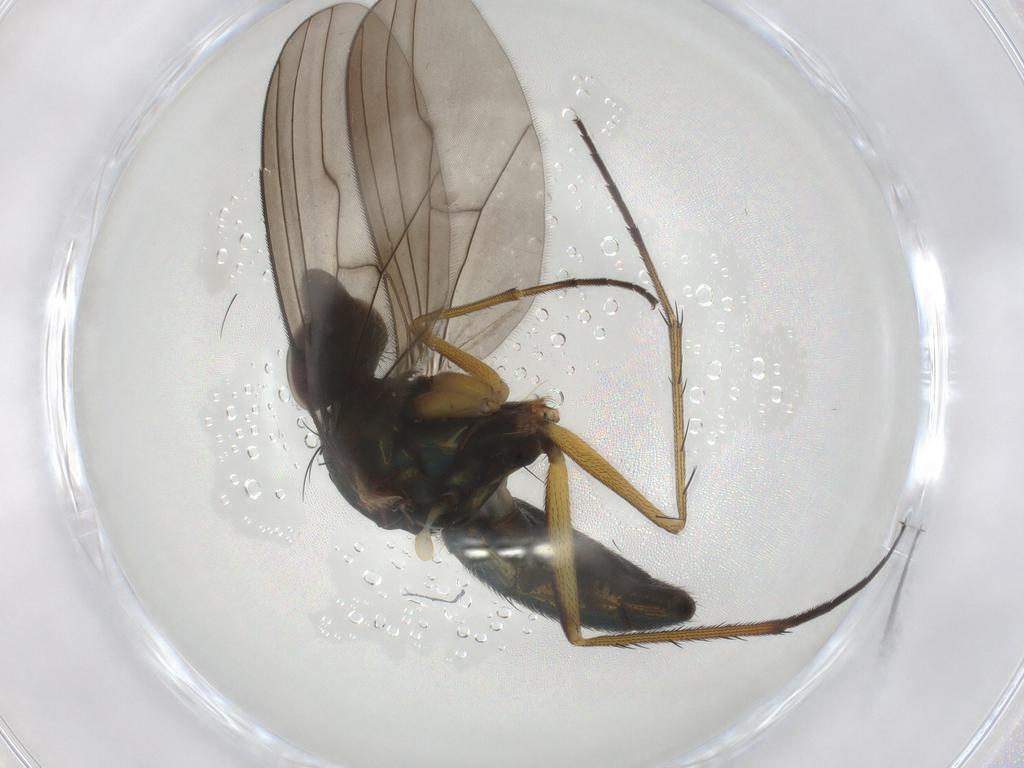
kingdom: Animalia
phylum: Arthropoda
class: Insecta
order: Diptera
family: Dolichopodidae
